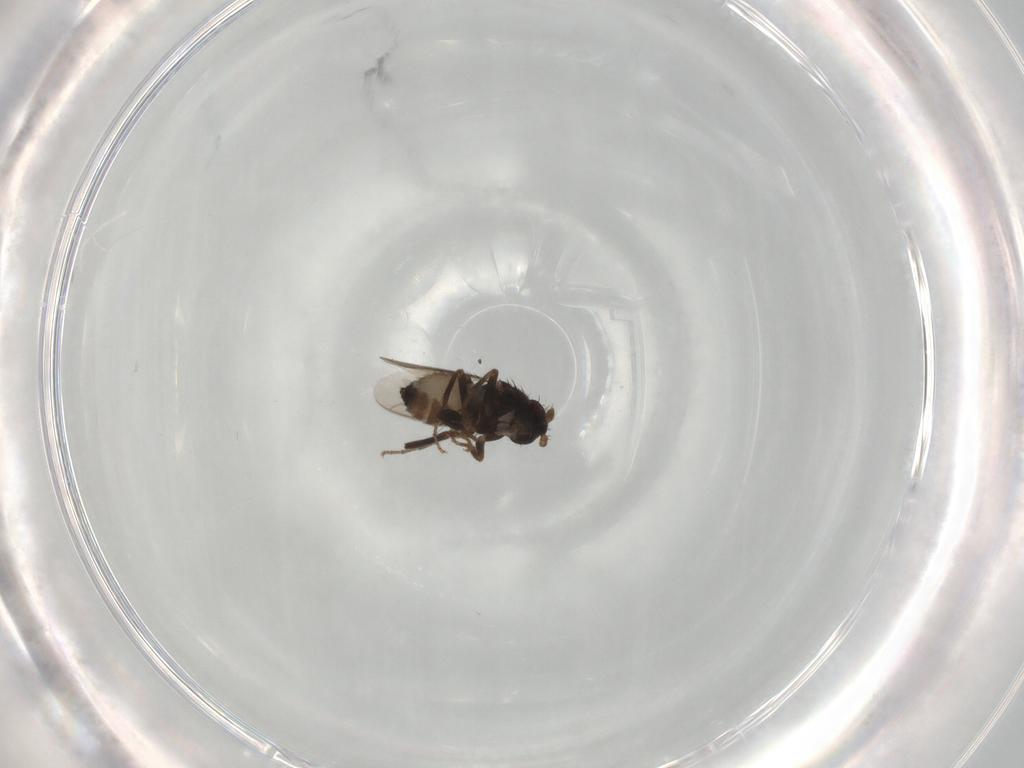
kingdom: Animalia
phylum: Arthropoda
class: Insecta
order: Diptera
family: Sphaeroceridae
